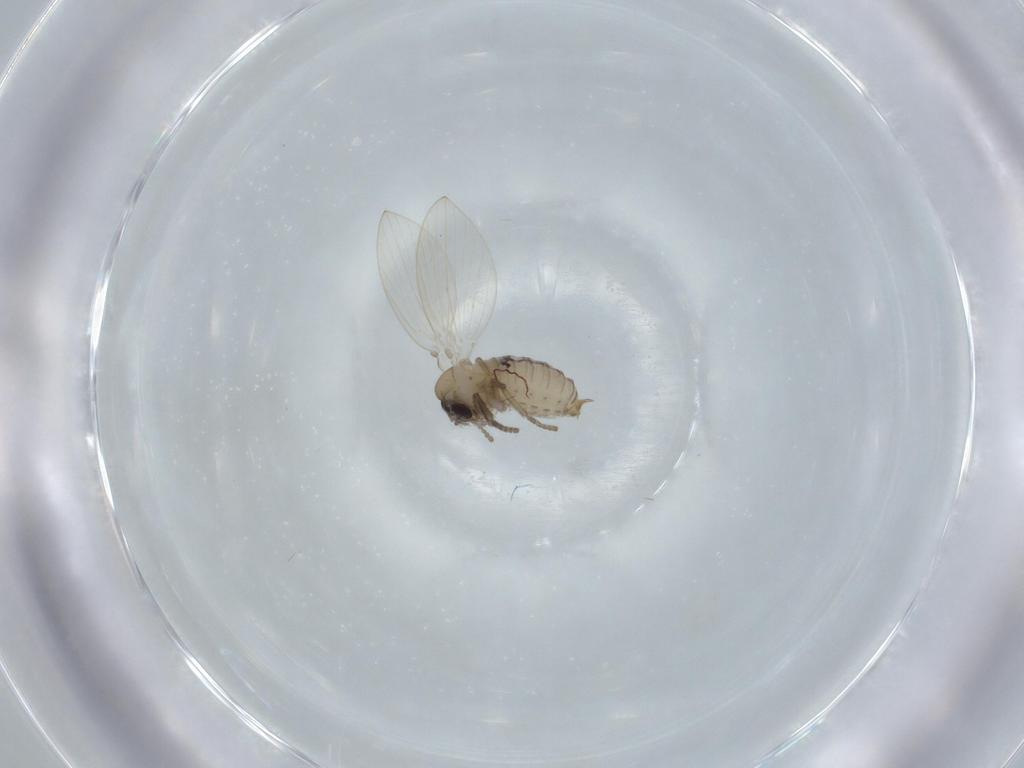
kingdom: Animalia
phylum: Arthropoda
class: Insecta
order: Diptera
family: Psychodidae
